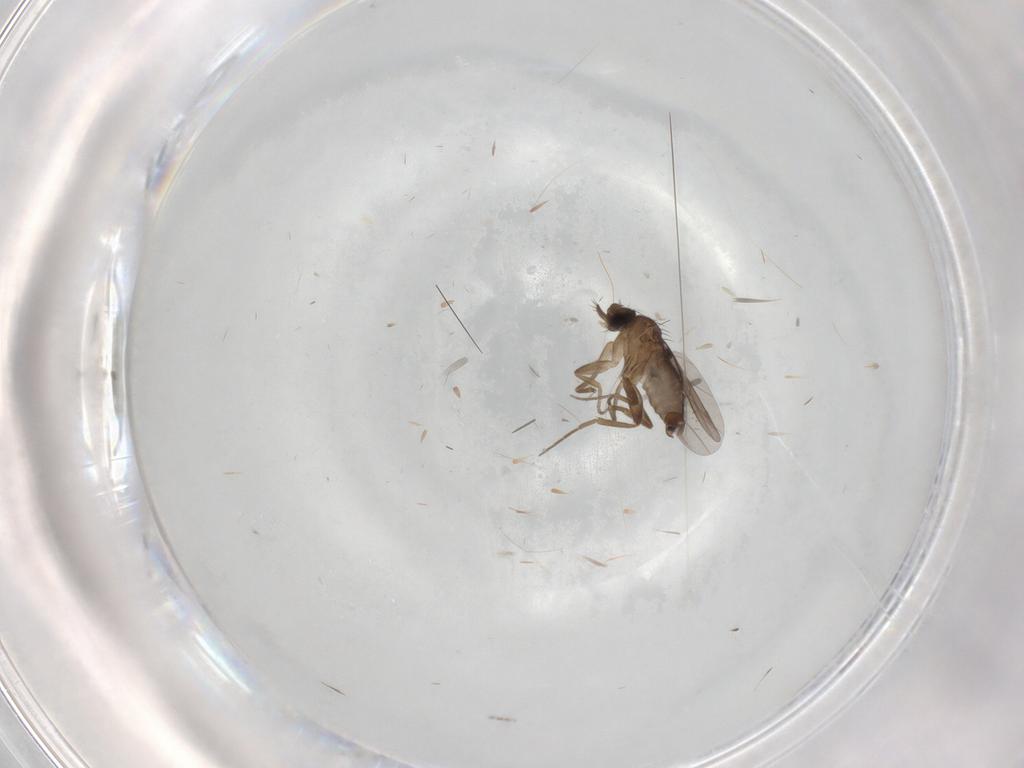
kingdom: Animalia
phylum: Arthropoda
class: Insecta
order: Diptera
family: Phoridae
